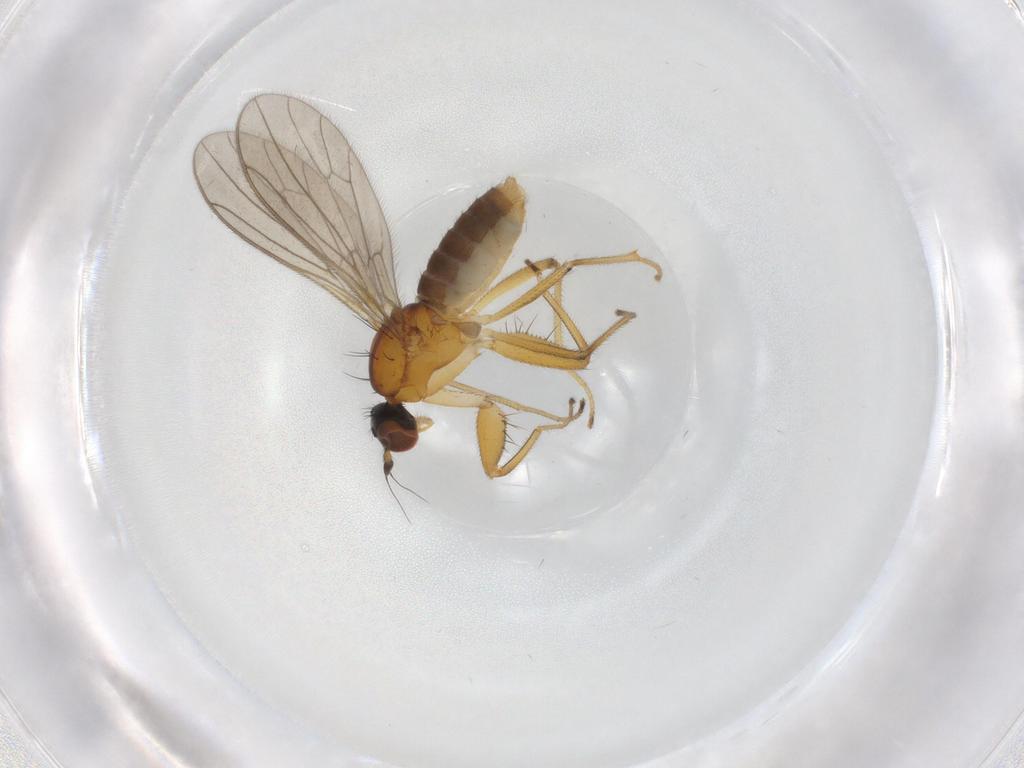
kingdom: Animalia
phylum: Arthropoda
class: Insecta
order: Diptera
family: Empididae
